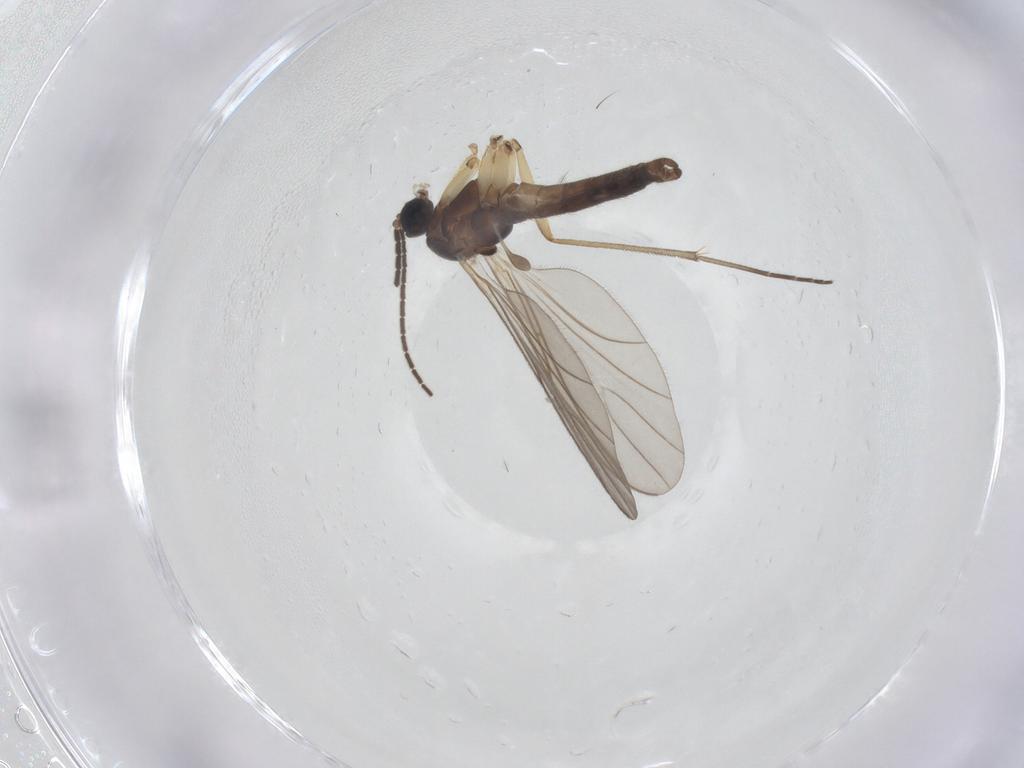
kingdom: Animalia
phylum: Arthropoda
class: Insecta
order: Diptera
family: Sciaridae
